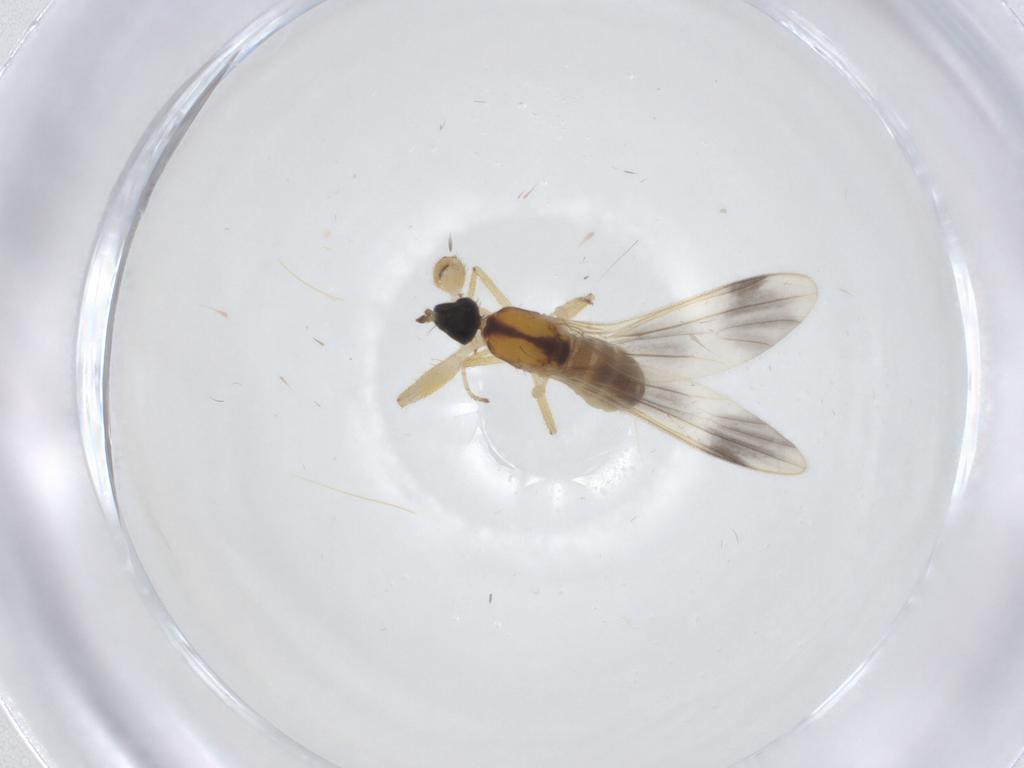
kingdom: Animalia
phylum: Arthropoda
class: Insecta
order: Diptera
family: Empididae
